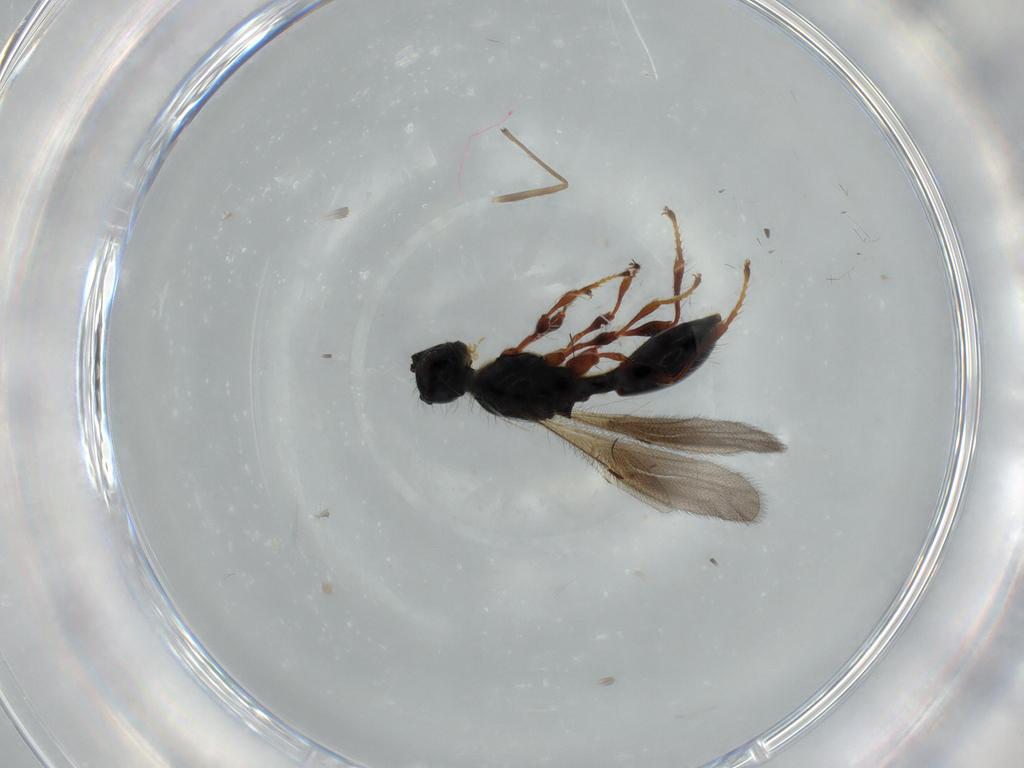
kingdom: Animalia
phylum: Arthropoda
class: Insecta
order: Hymenoptera
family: Diapriidae
